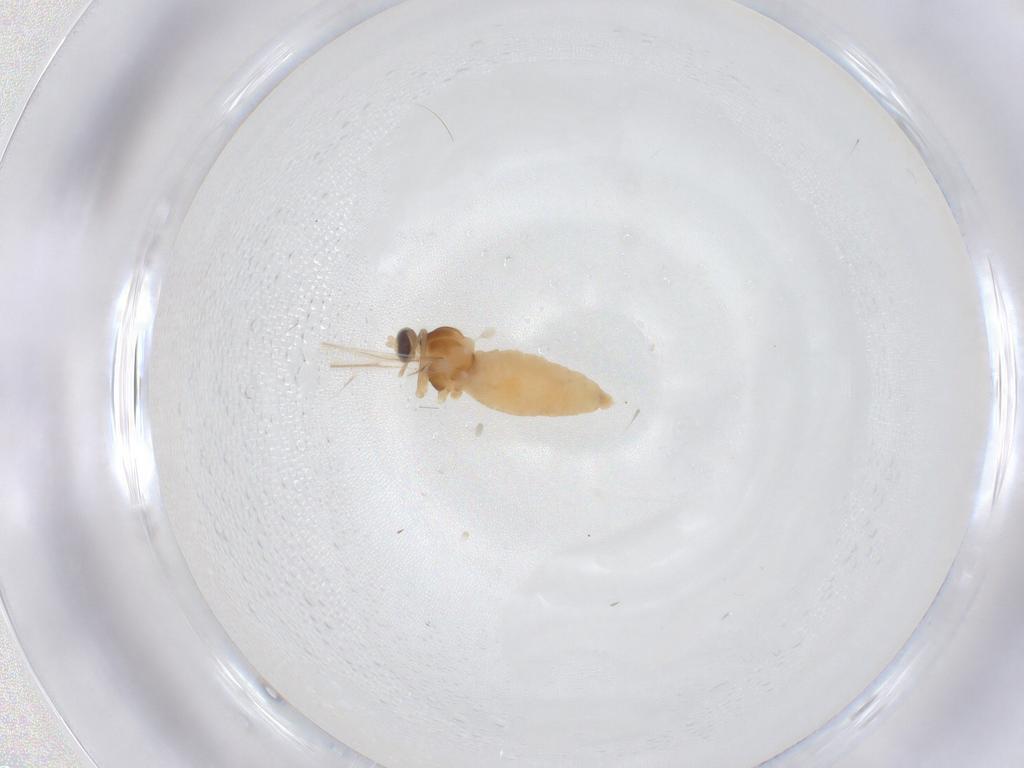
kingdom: Animalia
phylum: Arthropoda
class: Insecta
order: Diptera
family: Cecidomyiidae
